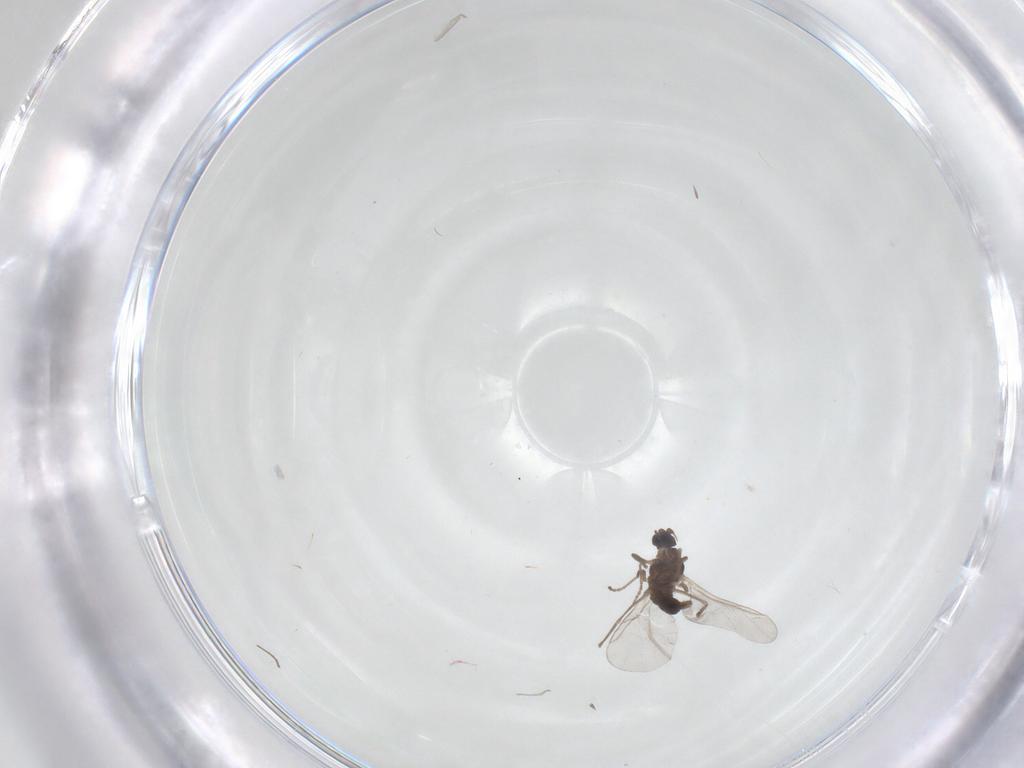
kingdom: Animalia
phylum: Arthropoda
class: Insecta
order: Diptera
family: Cecidomyiidae
